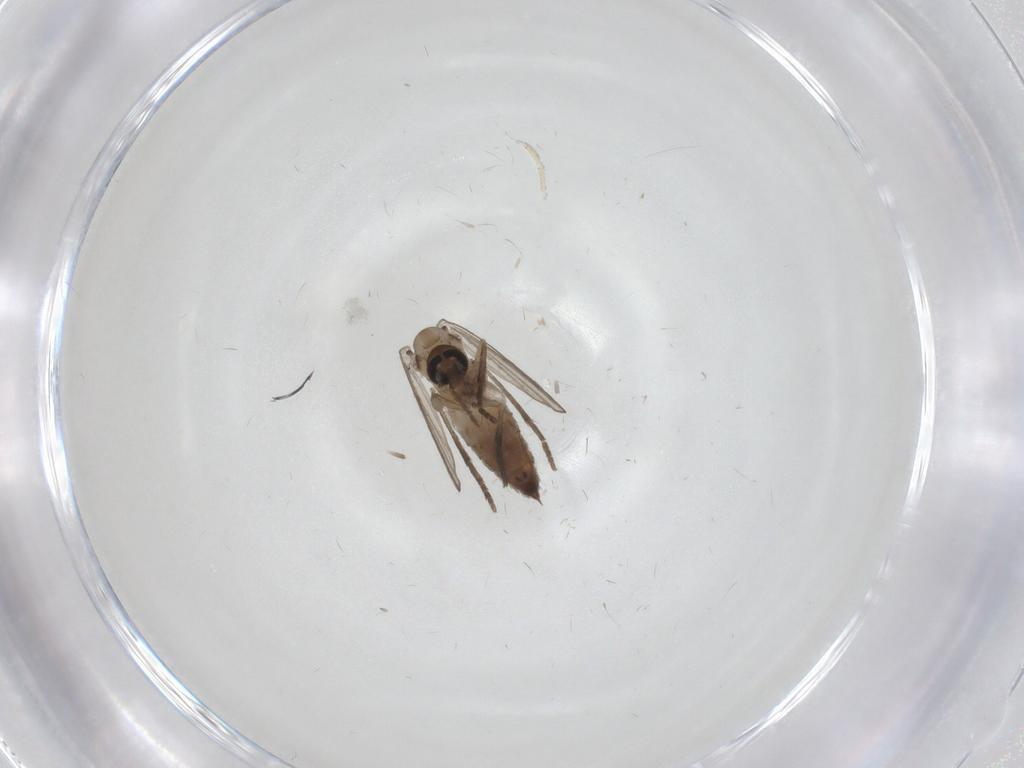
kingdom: Animalia
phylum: Arthropoda
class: Insecta
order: Diptera
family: Psychodidae
